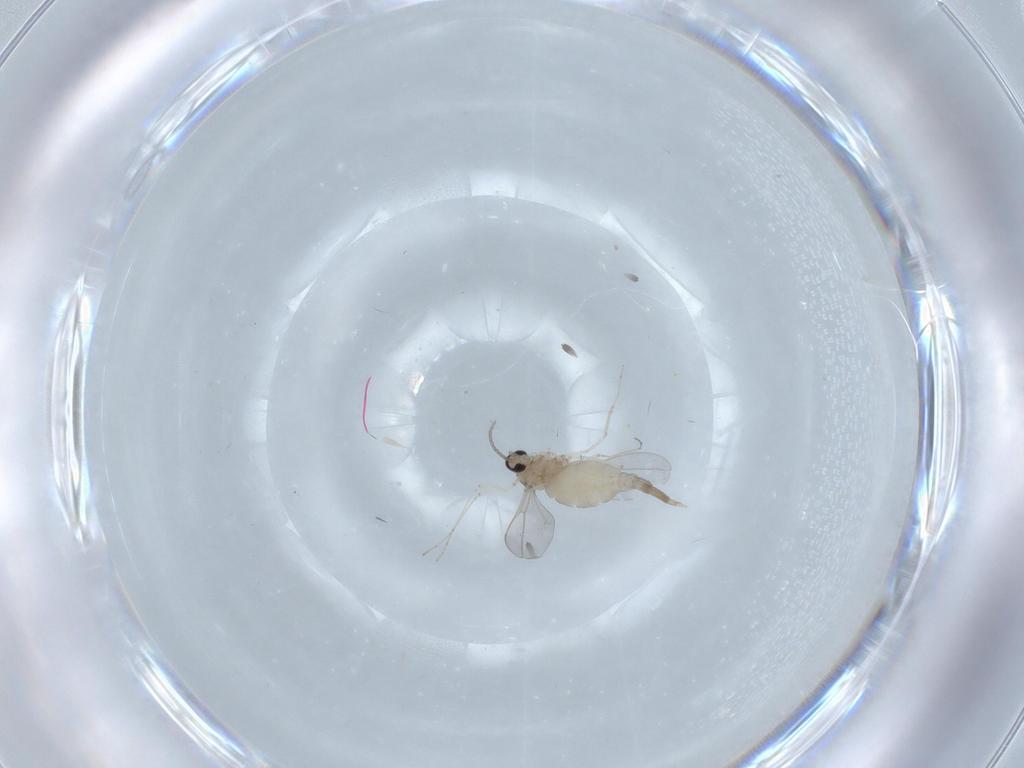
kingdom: Animalia
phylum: Arthropoda
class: Insecta
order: Diptera
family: Cecidomyiidae
